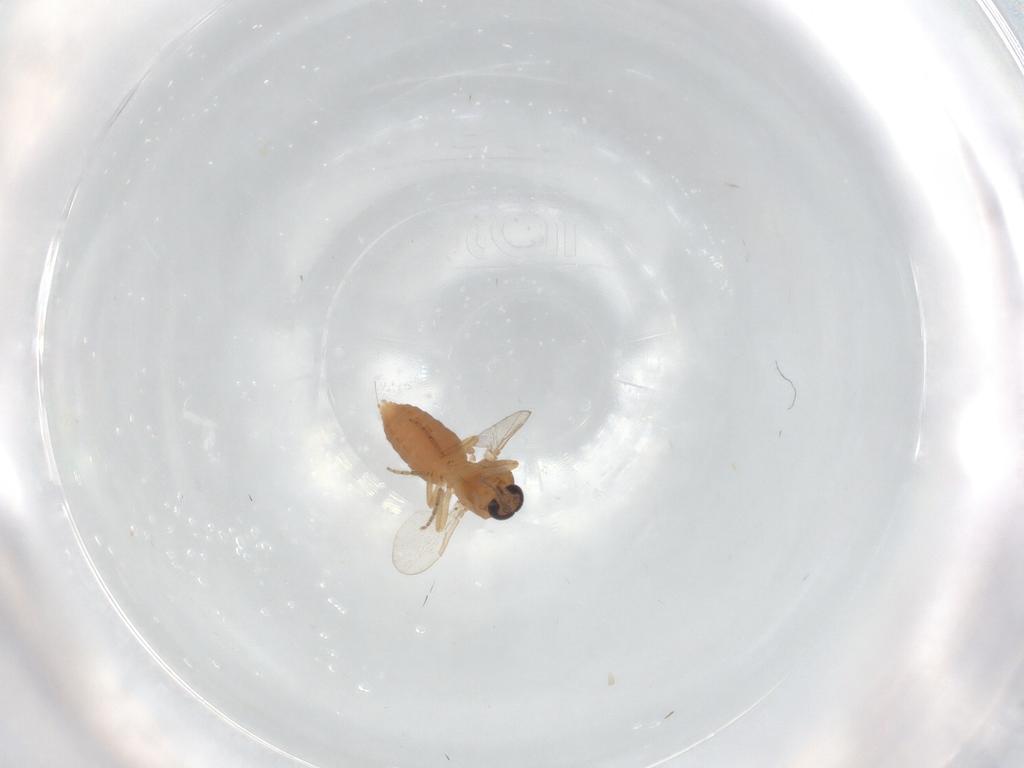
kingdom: Animalia
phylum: Arthropoda
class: Insecta
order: Diptera
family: Ceratopogonidae
